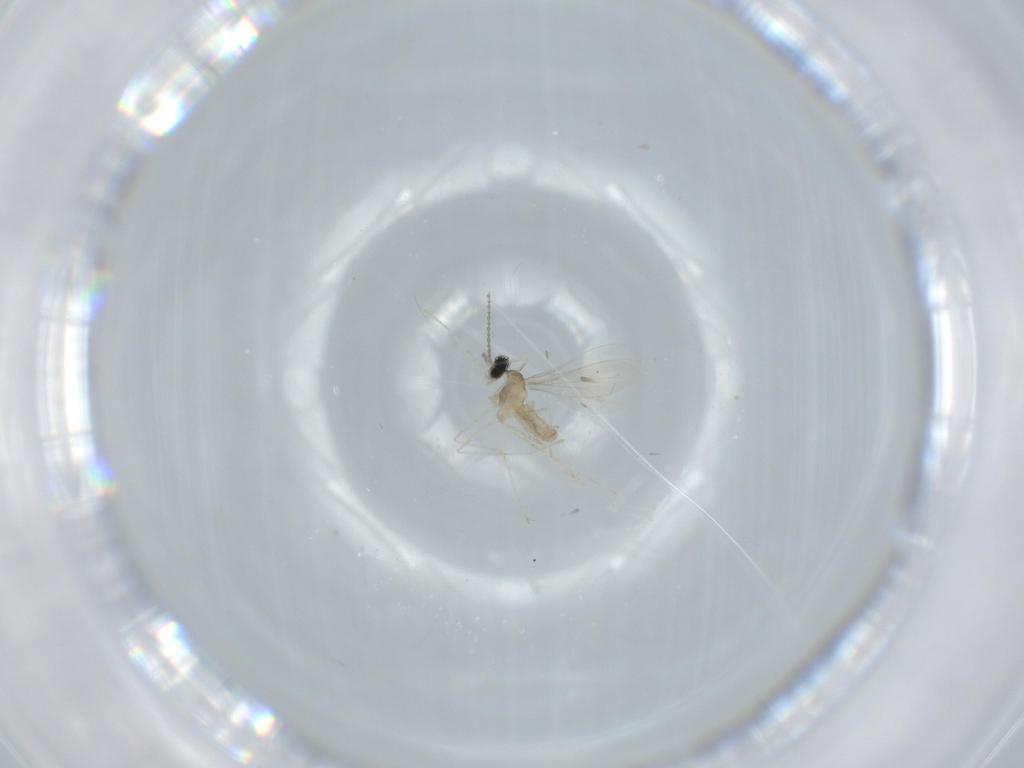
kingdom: Animalia
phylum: Arthropoda
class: Insecta
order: Diptera
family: Cecidomyiidae
